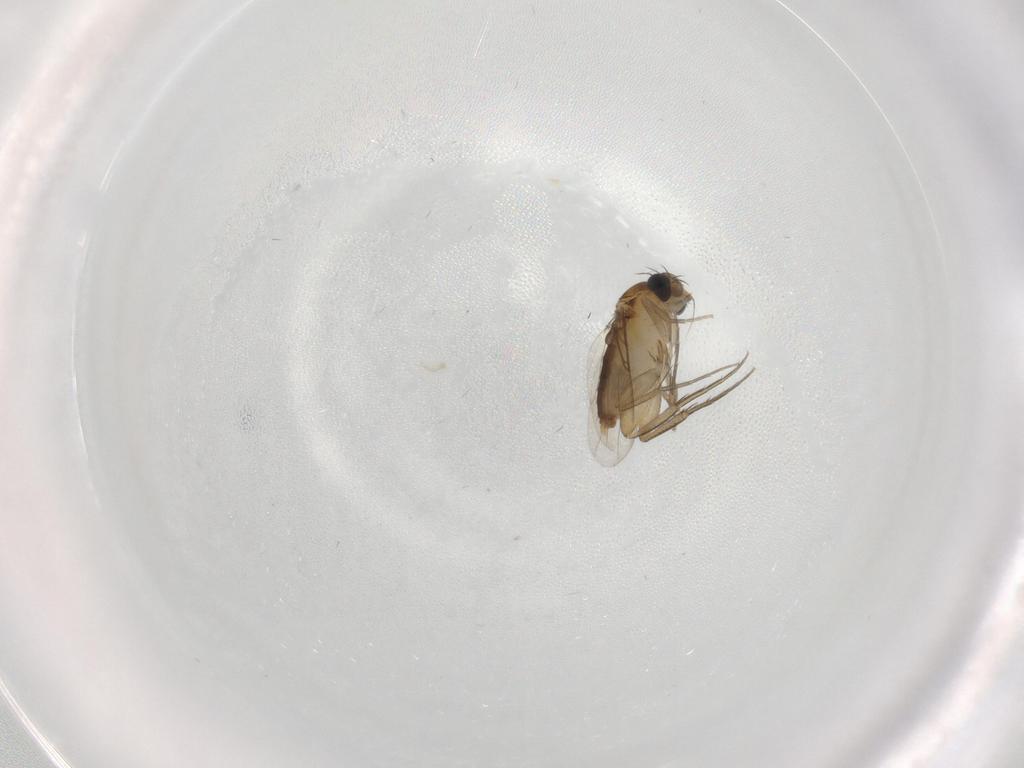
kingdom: Animalia
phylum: Arthropoda
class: Insecta
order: Diptera
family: Phoridae
